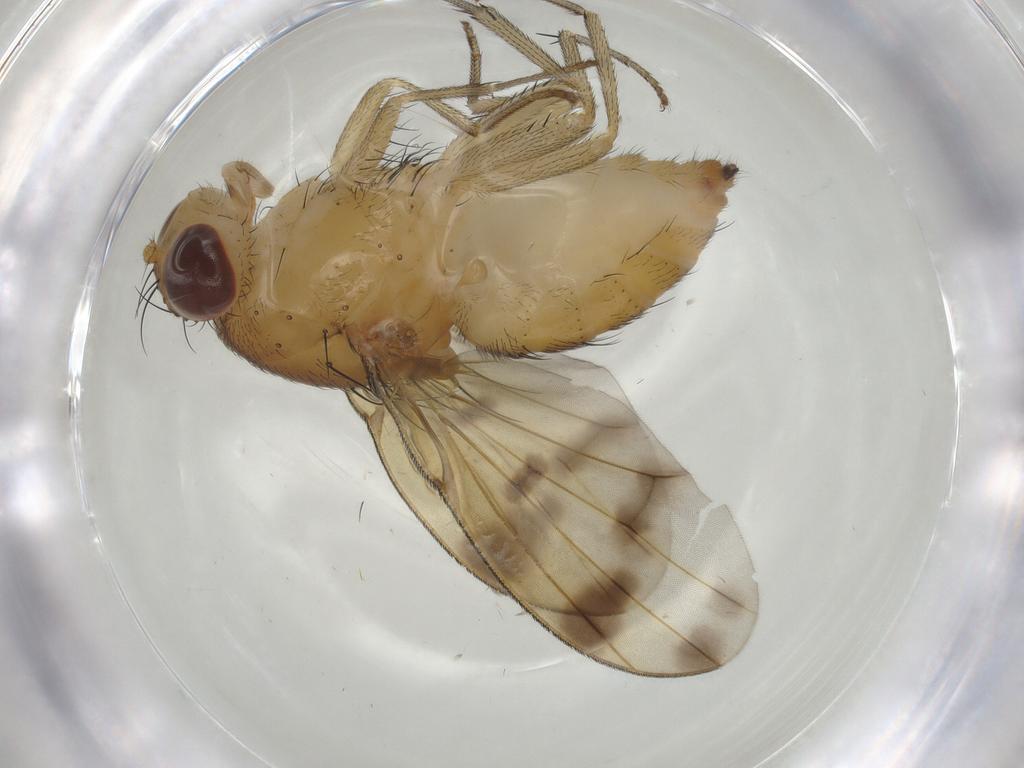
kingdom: Animalia
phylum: Arthropoda
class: Insecta
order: Diptera
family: Lauxaniidae
